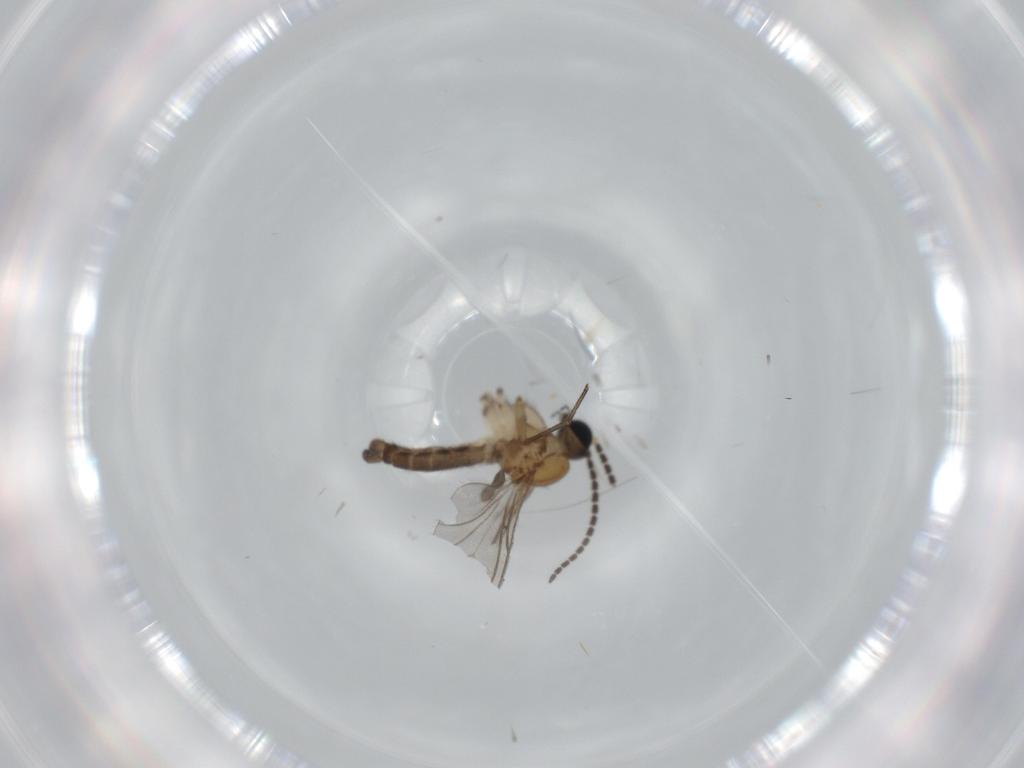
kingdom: Animalia
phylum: Arthropoda
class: Insecta
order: Diptera
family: Sciaridae
